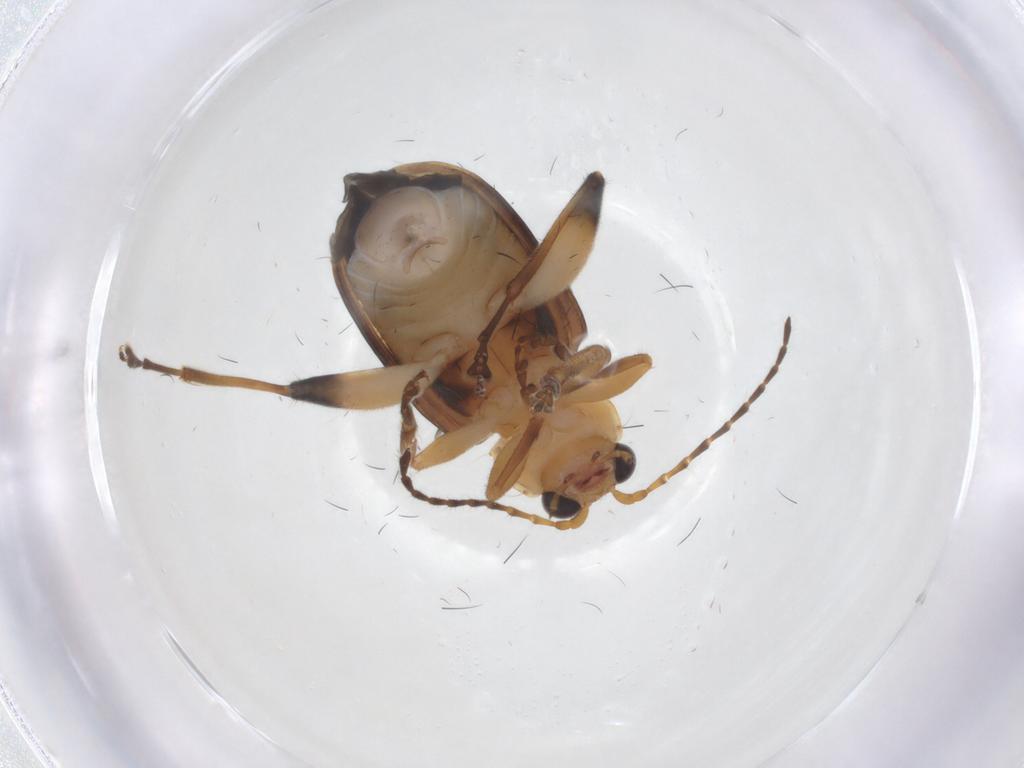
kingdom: Animalia
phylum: Arthropoda
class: Insecta
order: Coleoptera
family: Chrysomelidae
